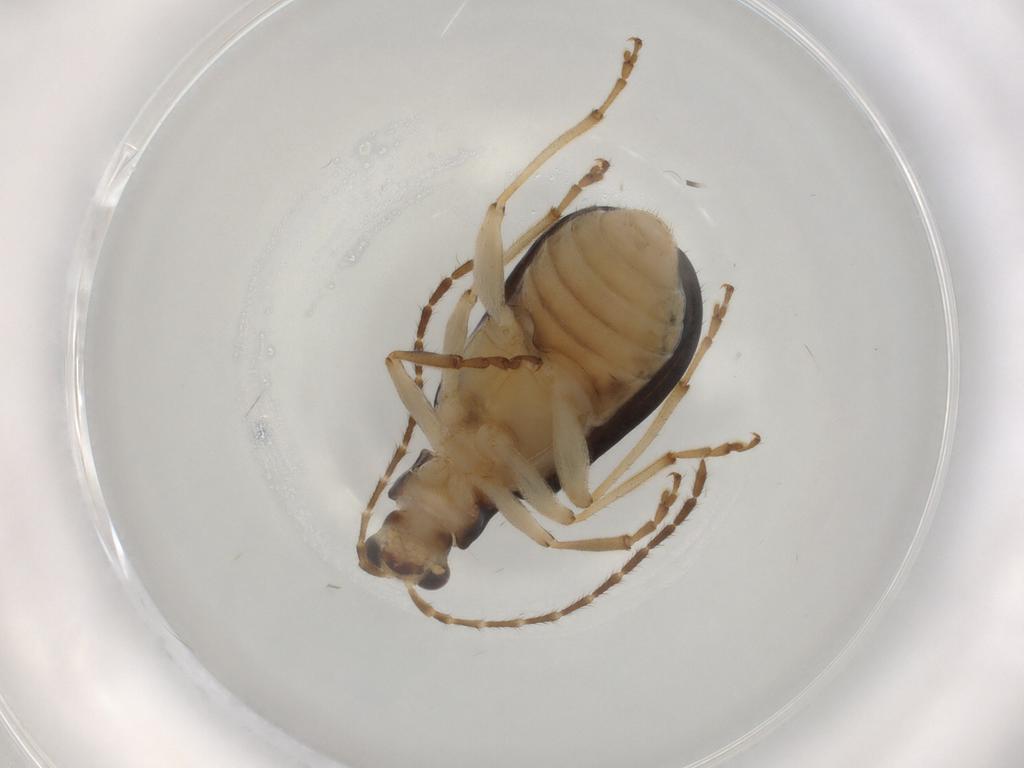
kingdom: Animalia
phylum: Arthropoda
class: Insecta
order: Coleoptera
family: Chrysomelidae
